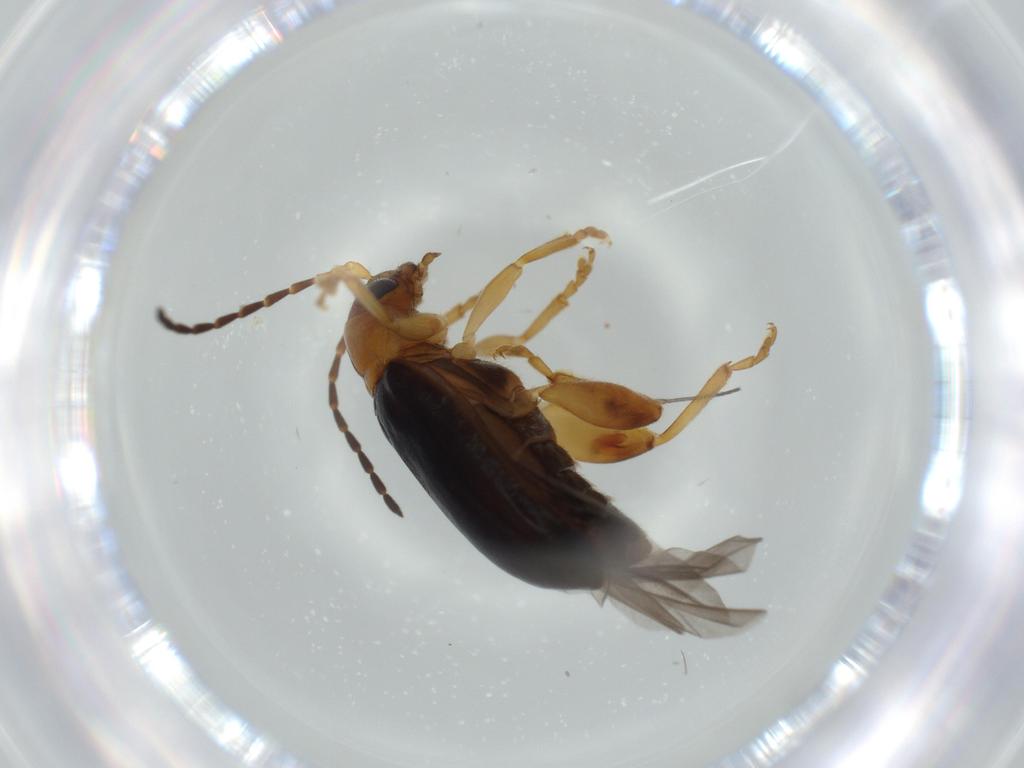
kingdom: Animalia
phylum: Arthropoda
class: Insecta
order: Coleoptera
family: Chrysomelidae
